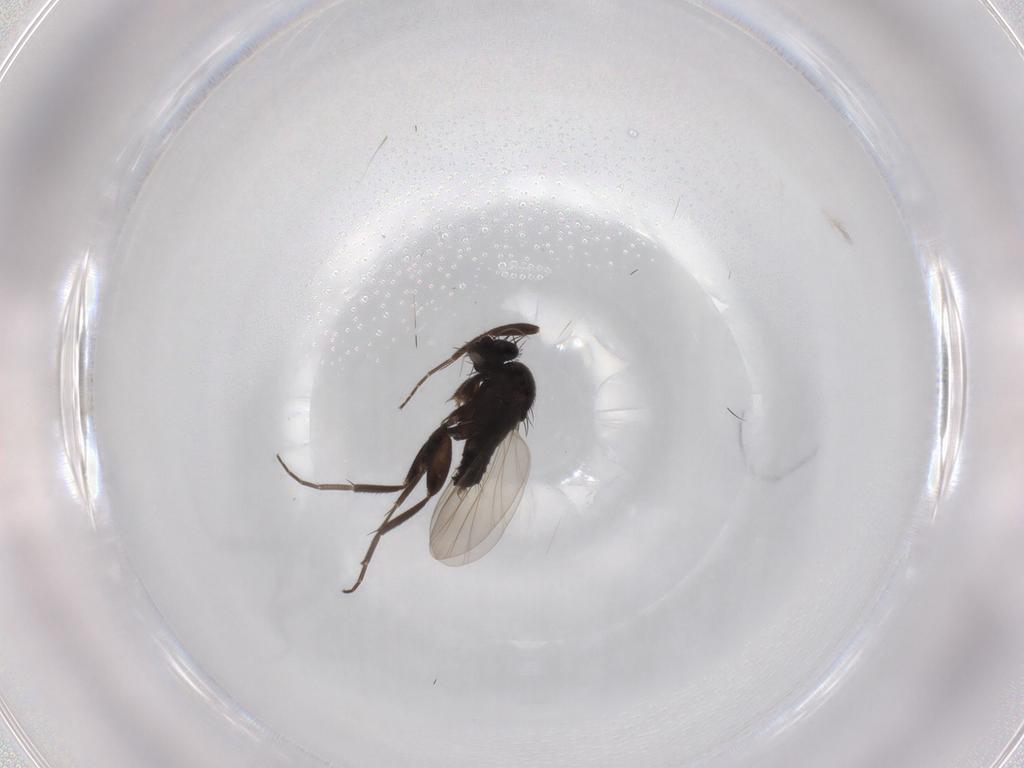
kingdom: Animalia
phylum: Arthropoda
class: Insecta
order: Diptera
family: Phoridae
